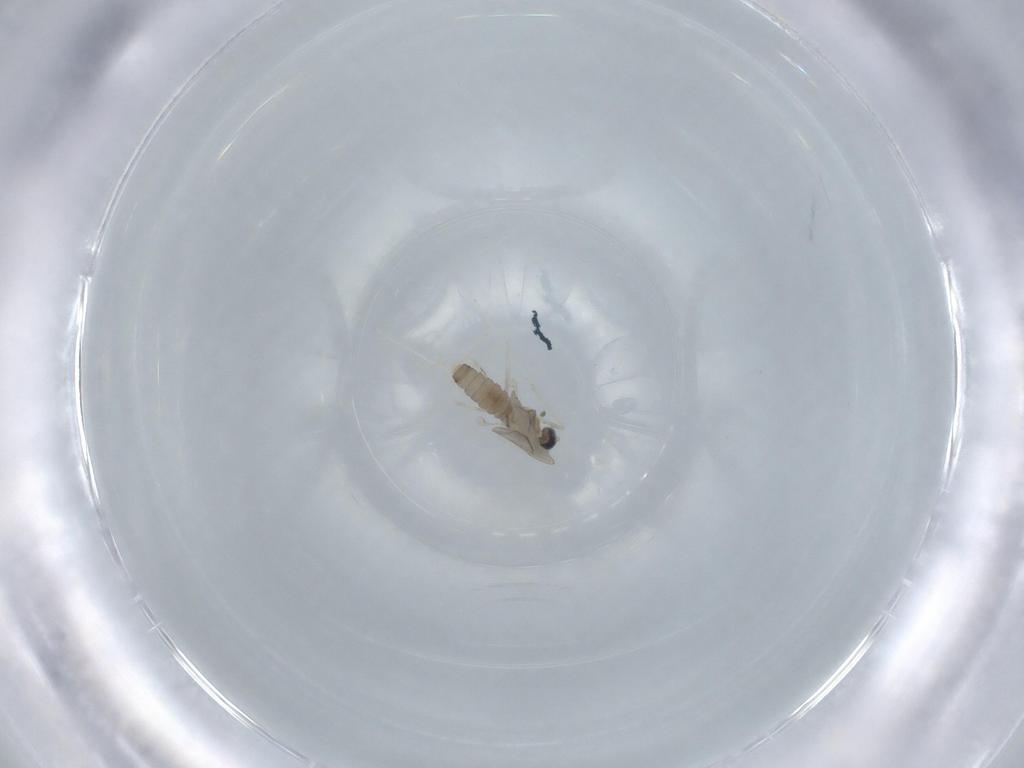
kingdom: Animalia
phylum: Arthropoda
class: Insecta
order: Diptera
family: Cecidomyiidae
